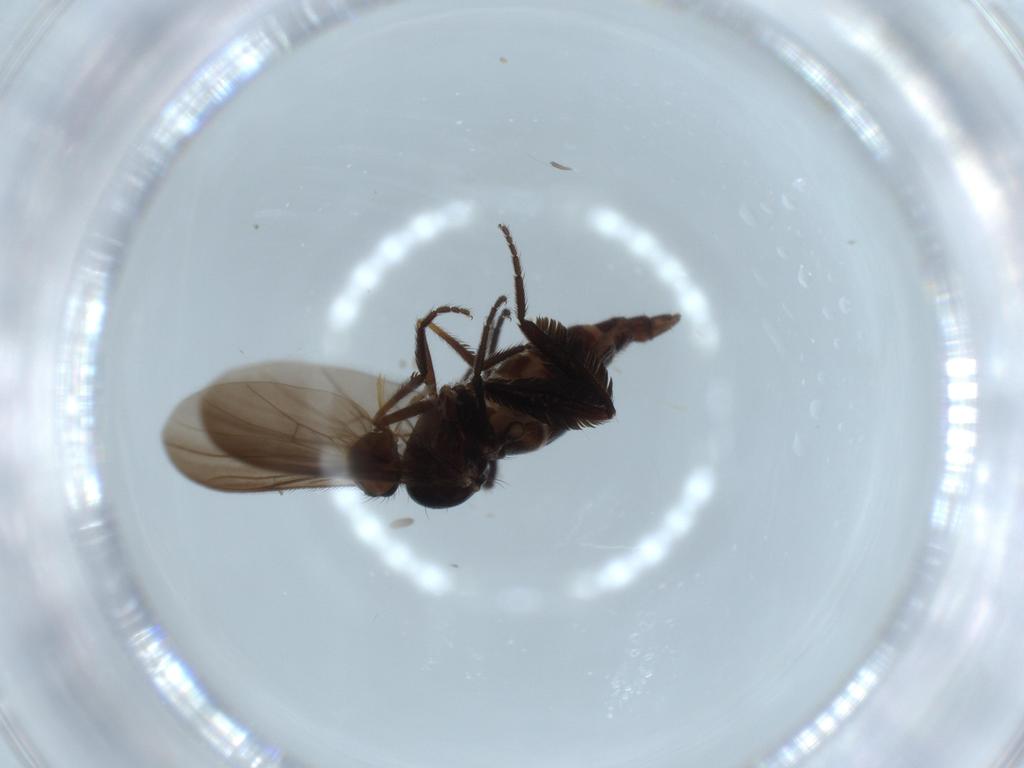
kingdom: Animalia
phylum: Arthropoda
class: Insecta
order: Diptera
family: Empididae
